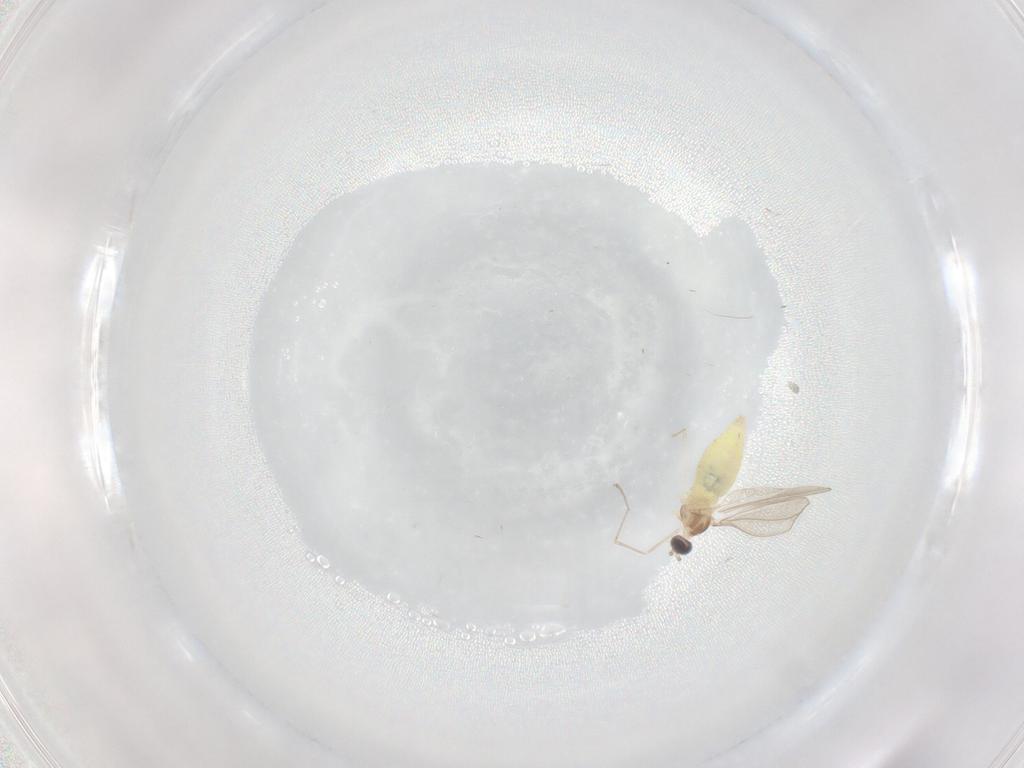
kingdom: Animalia
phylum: Arthropoda
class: Insecta
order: Diptera
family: Cecidomyiidae
